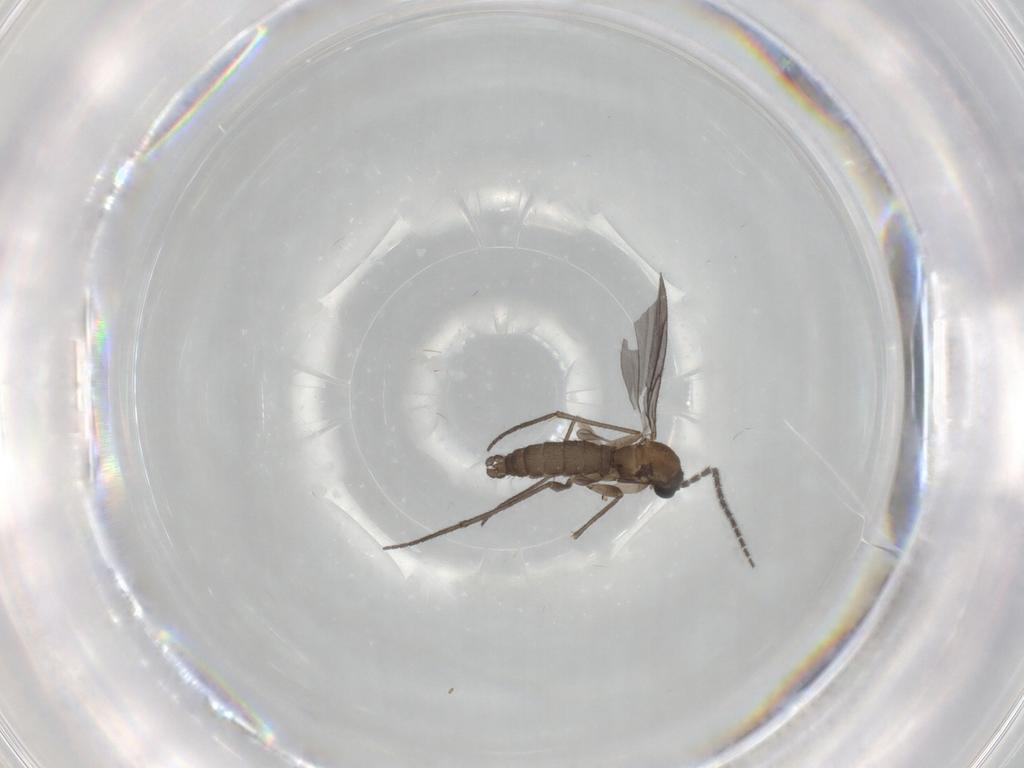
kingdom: Animalia
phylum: Arthropoda
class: Insecta
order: Diptera
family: Sciaridae
